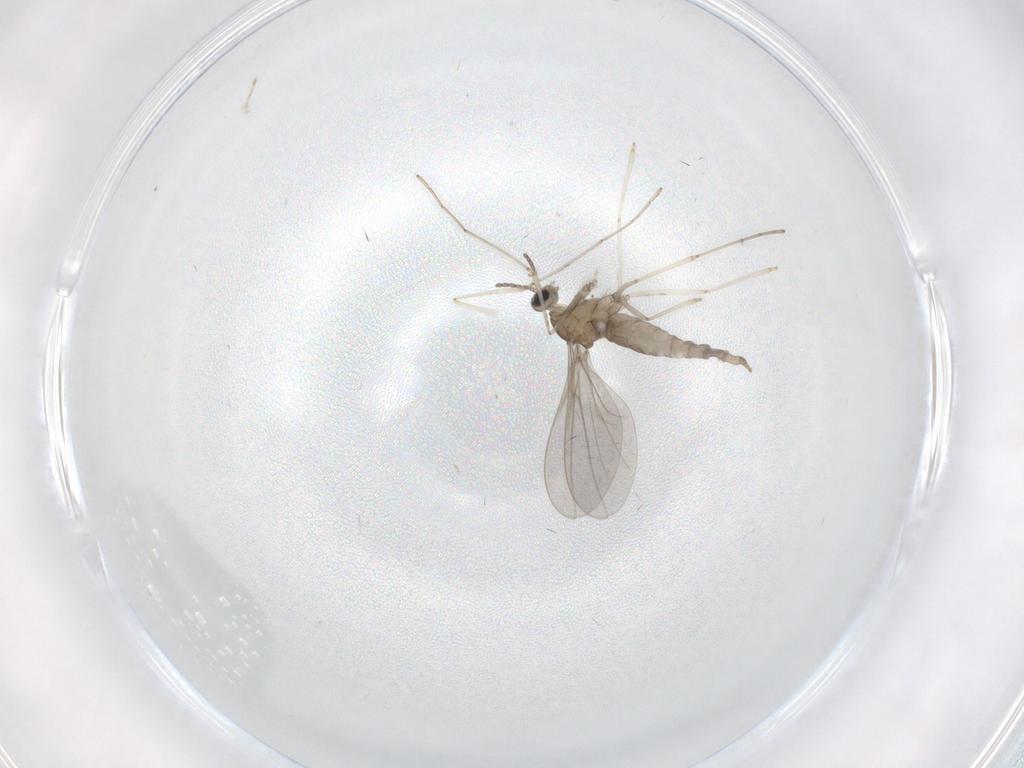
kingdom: Animalia
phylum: Arthropoda
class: Insecta
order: Diptera
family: Cecidomyiidae
